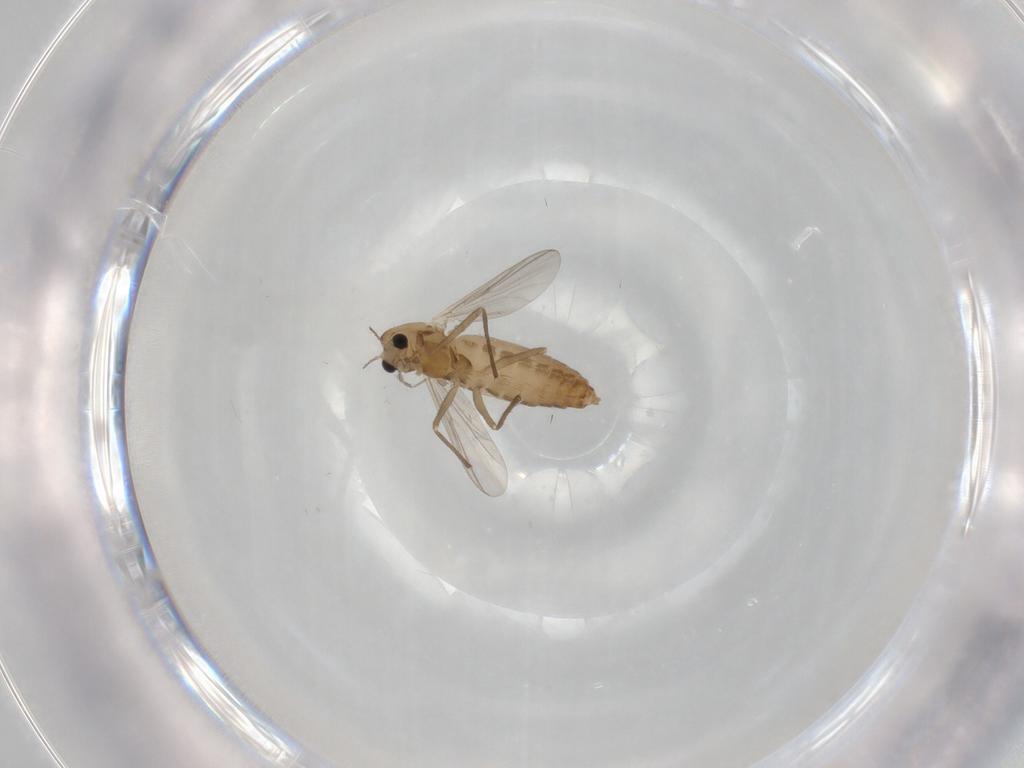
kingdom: Animalia
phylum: Arthropoda
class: Insecta
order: Diptera
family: Chironomidae
